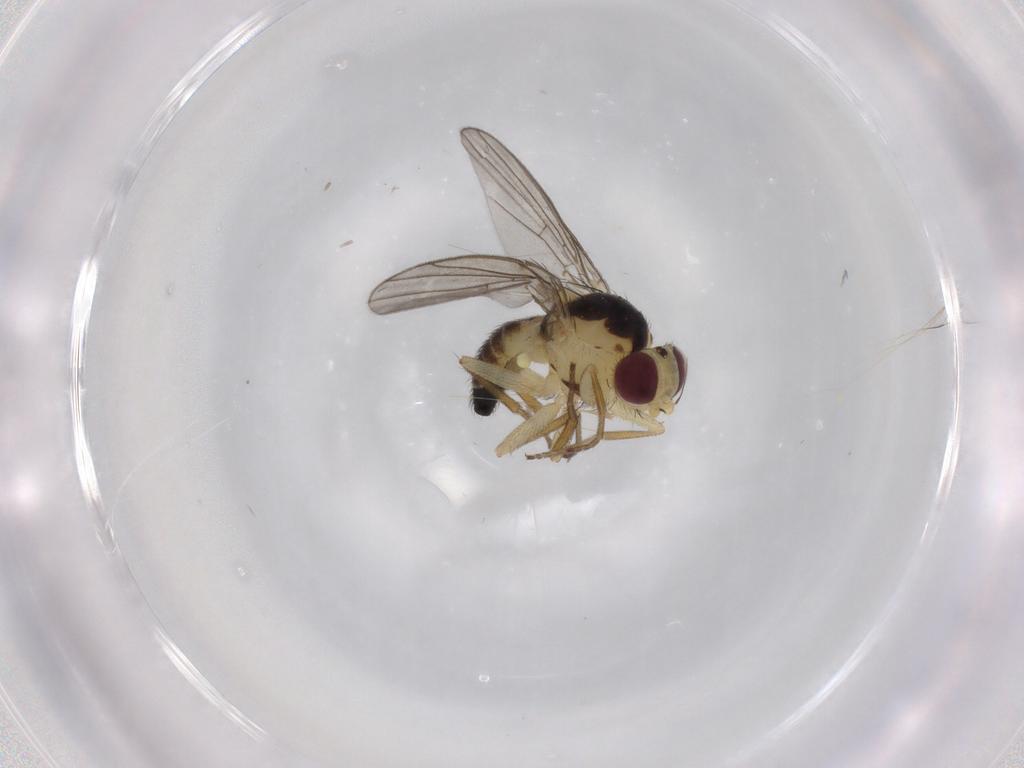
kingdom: Animalia
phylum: Arthropoda
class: Insecta
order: Diptera
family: Agromyzidae
